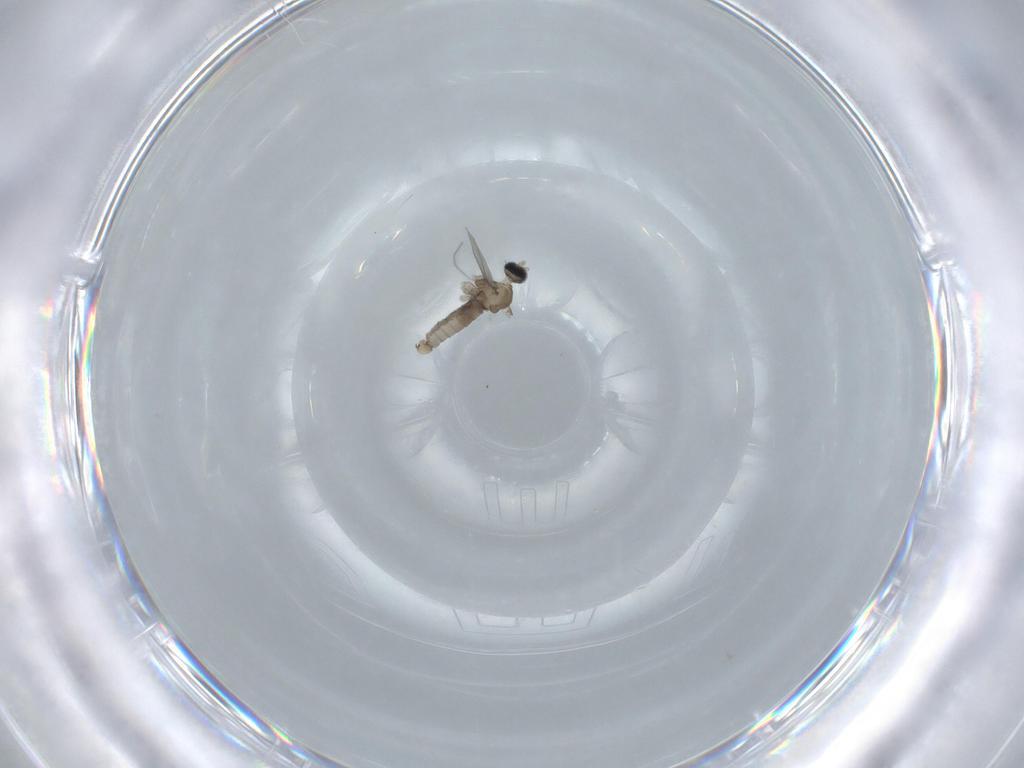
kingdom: Animalia
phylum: Arthropoda
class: Insecta
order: Diptera
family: Cecidomyiidae
